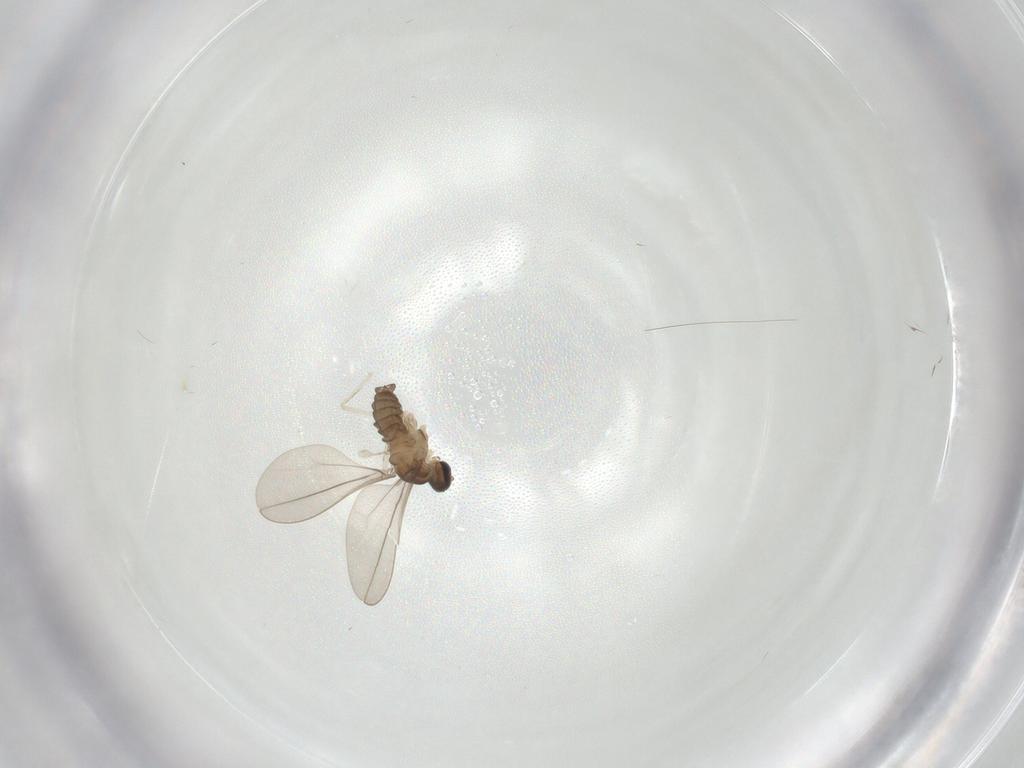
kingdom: Animalia
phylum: Arthropoda
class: Insecta
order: Diptera
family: Cecidomyiidae
